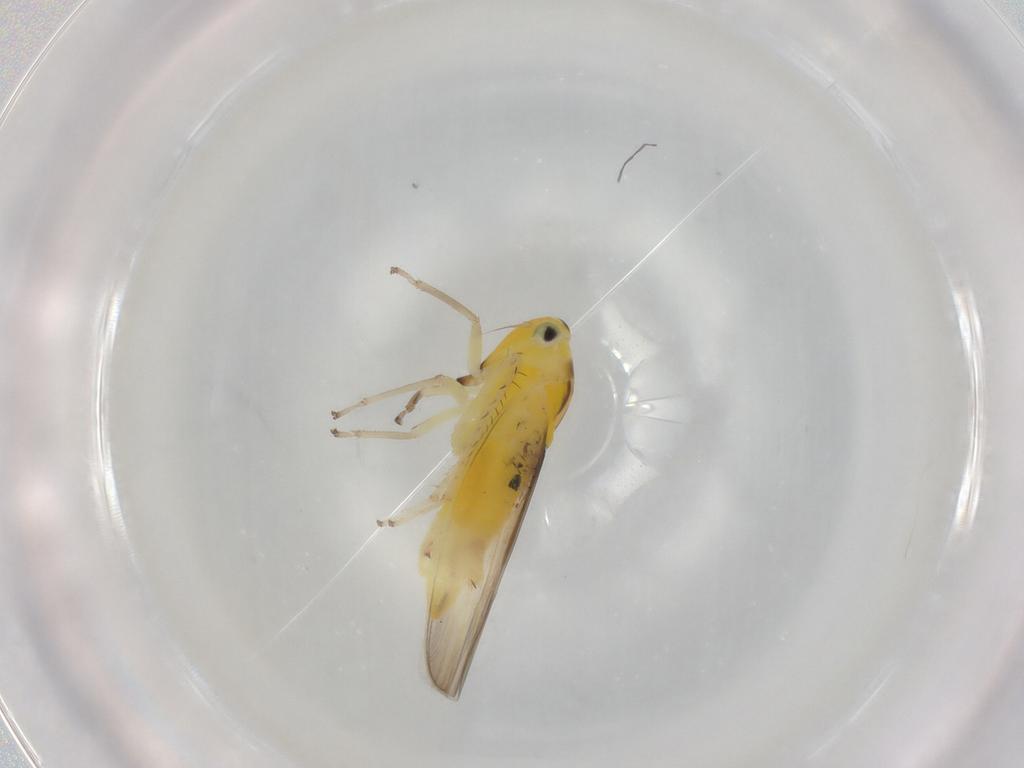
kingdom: Animalia
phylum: Arthropoda
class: Insecta
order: Hemiptera
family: Cicadellidae
